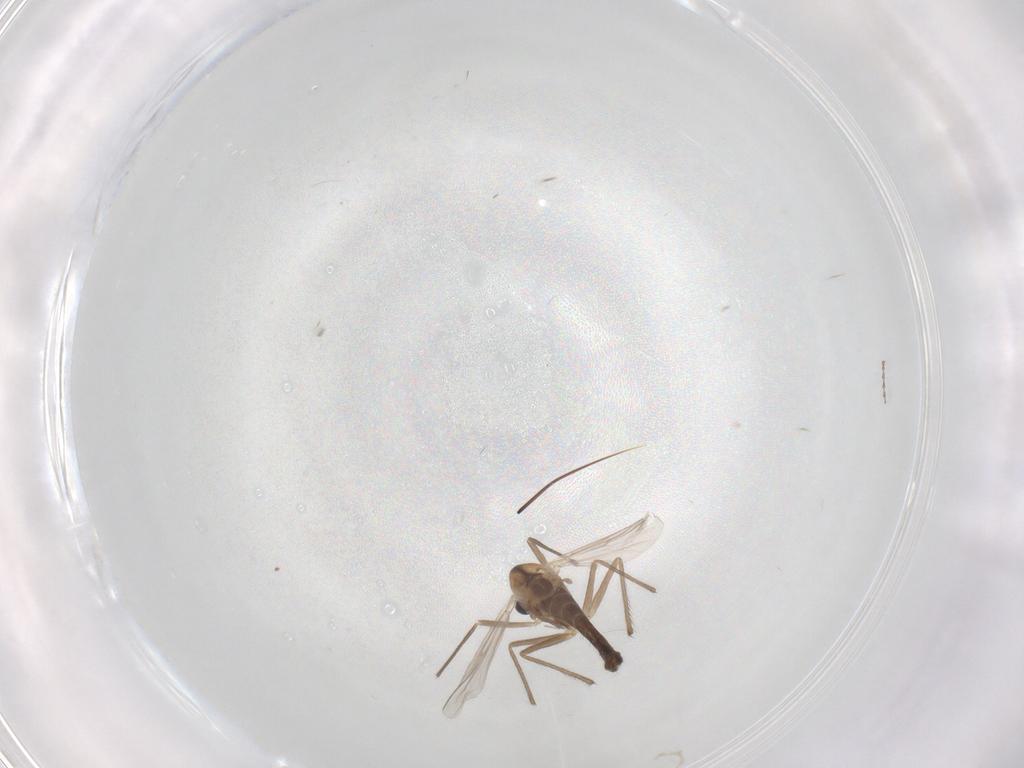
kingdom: Animalia
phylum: Arthropoda
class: Insecta
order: Diptera
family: Chironomidae
